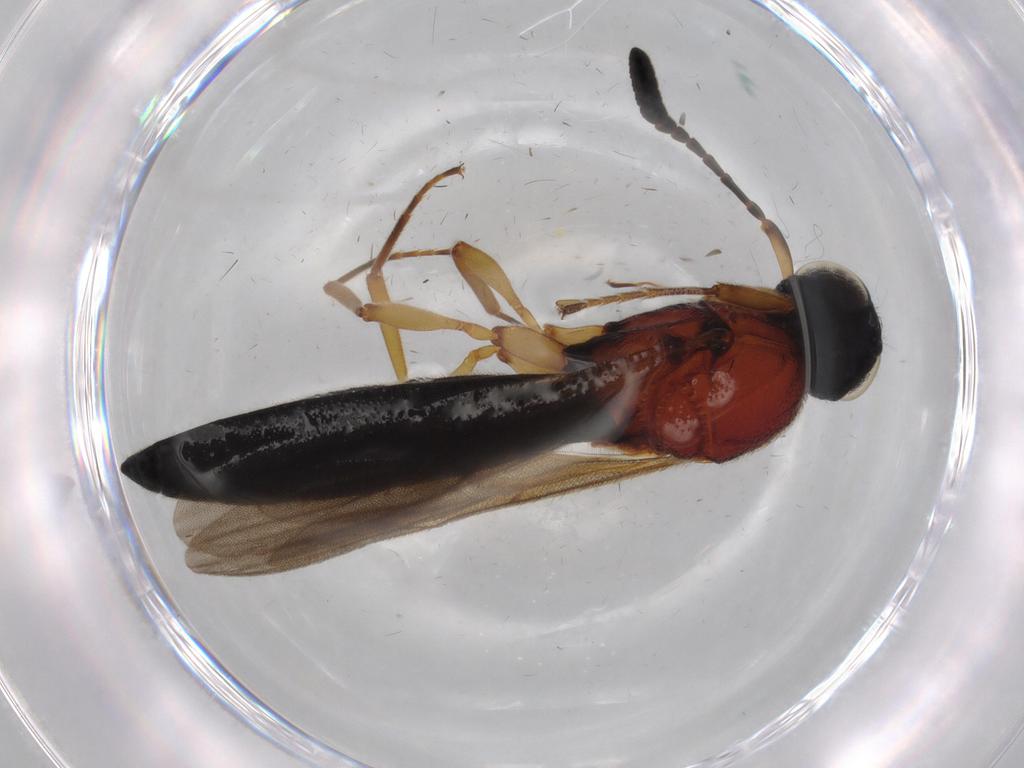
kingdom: Animalia
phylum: Arthropoda
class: Insecta
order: Hymenoptera
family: Scelionidae
